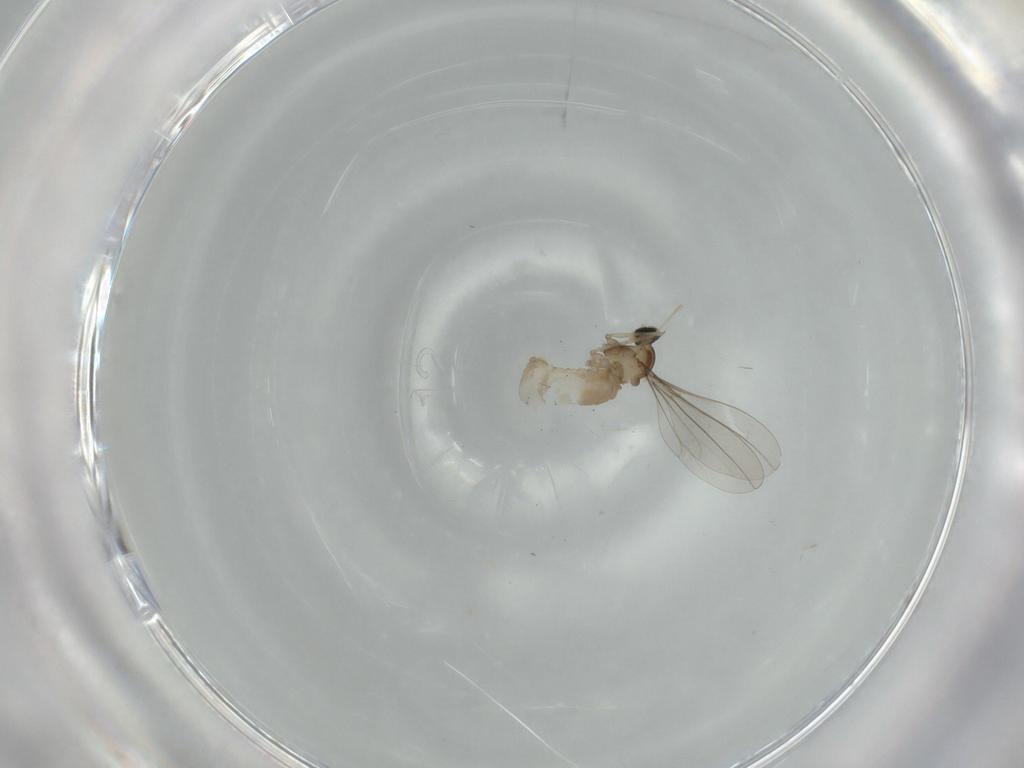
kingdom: Animalia
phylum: Arthropoda
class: Insecta
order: Diptera
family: Cecidomyiidae
